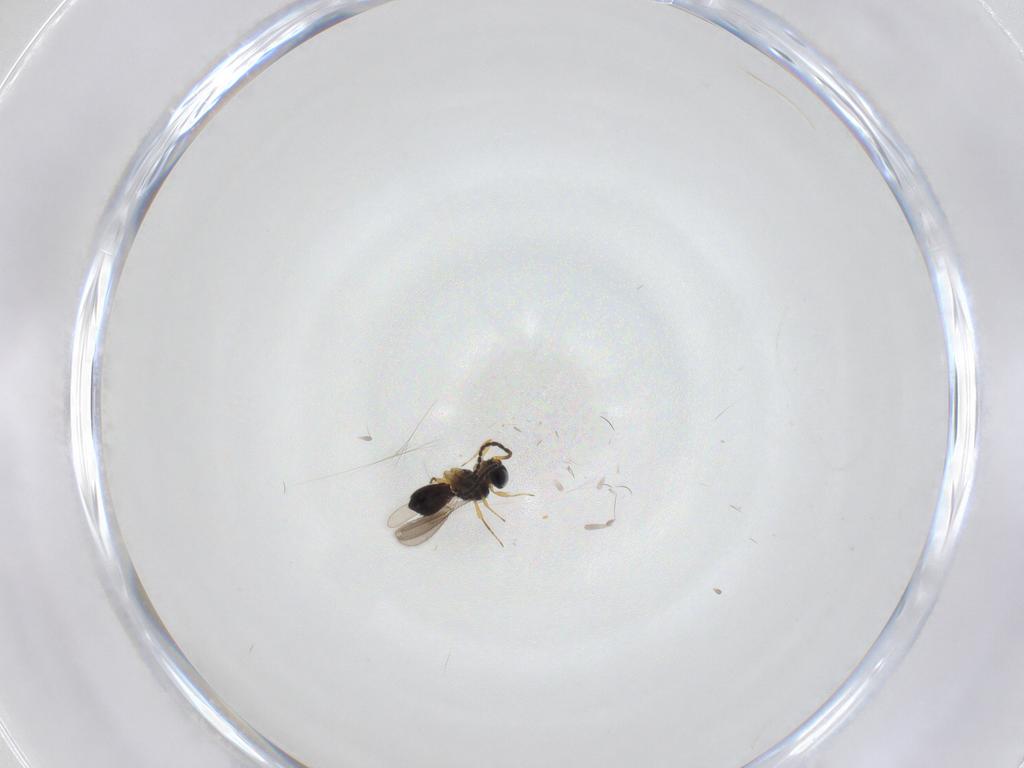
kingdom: Animalia
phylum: Arthropoda
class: Insecta
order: Hymenoptera
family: Scelionidae
